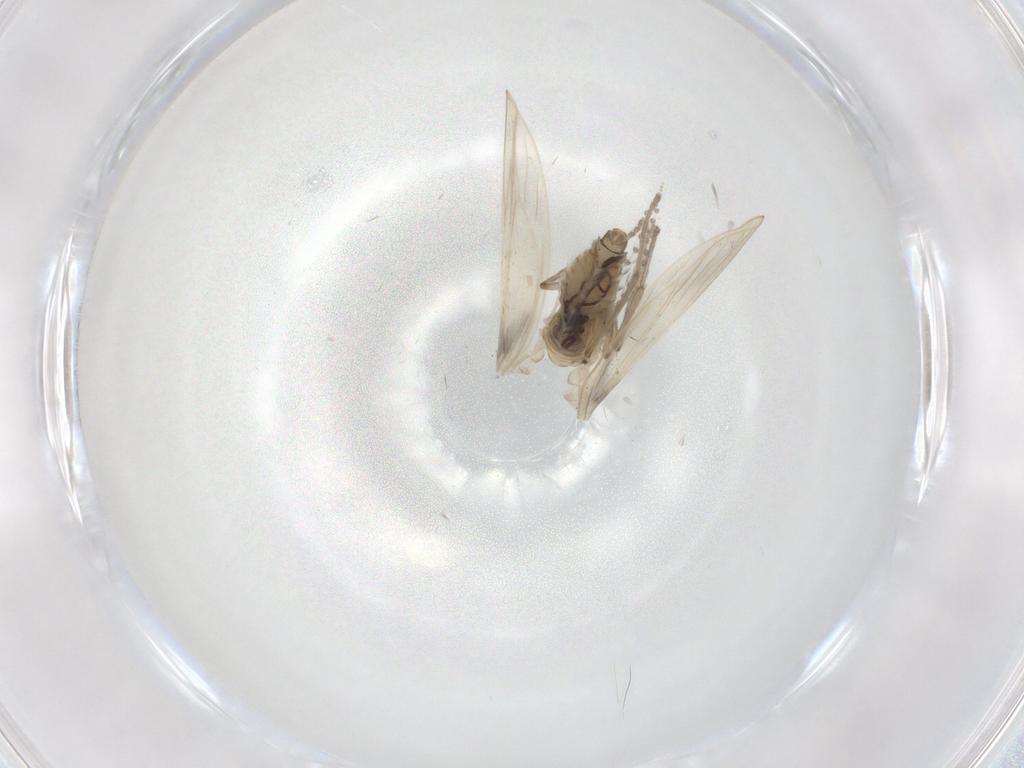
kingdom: Animalia
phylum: Arthropoda
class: Insecta
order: Diptera
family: Psychodidae
